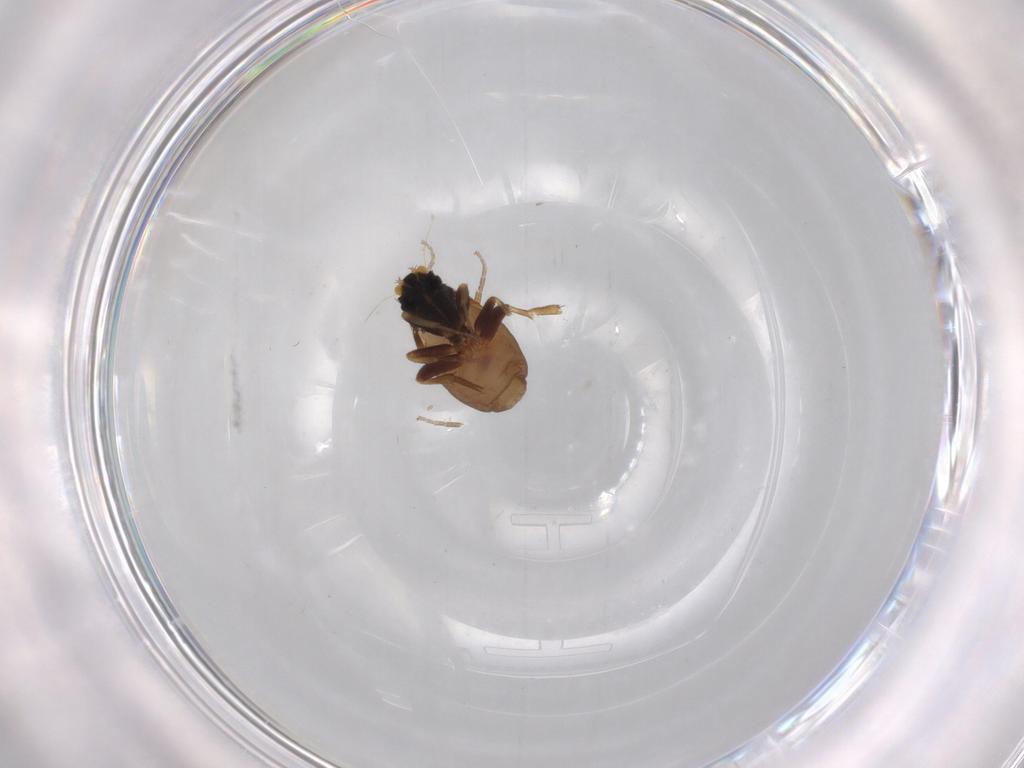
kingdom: Animalia
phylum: Arthropoda
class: Insecta
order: Diptera
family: Phoridae
